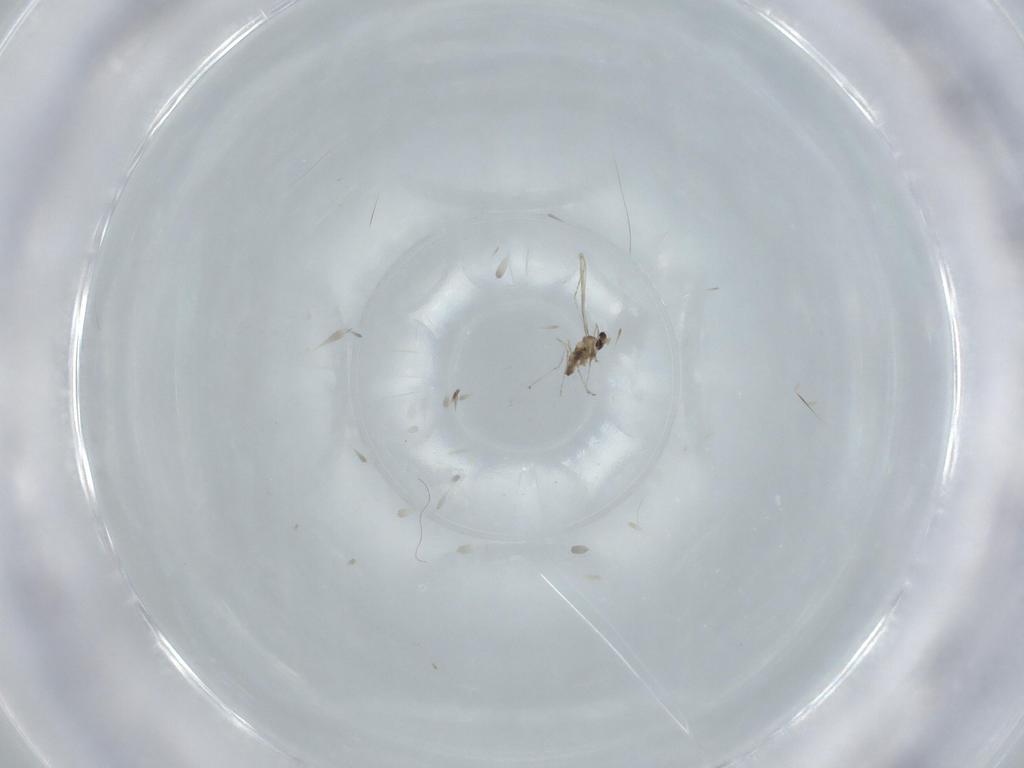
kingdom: Animalia
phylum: Arthropoda
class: Insecta
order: Diptera
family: Cecidomyiidae
